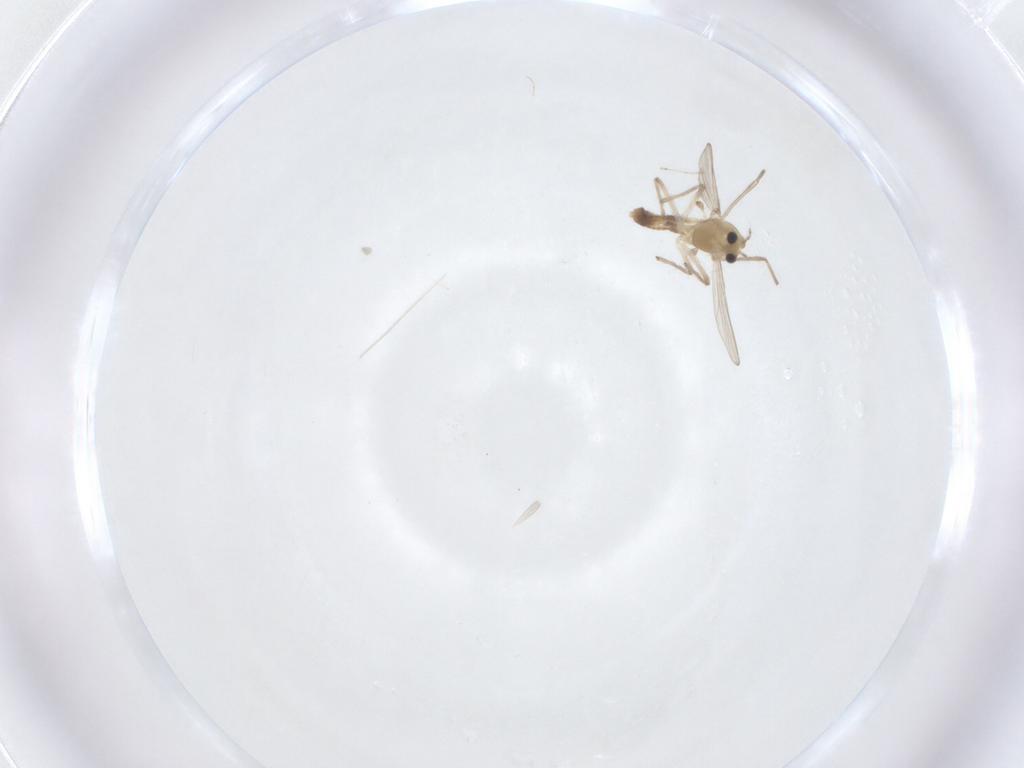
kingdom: Animalia
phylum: Arthropoda
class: Insecta
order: Diptera
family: Cecidomyiidae
